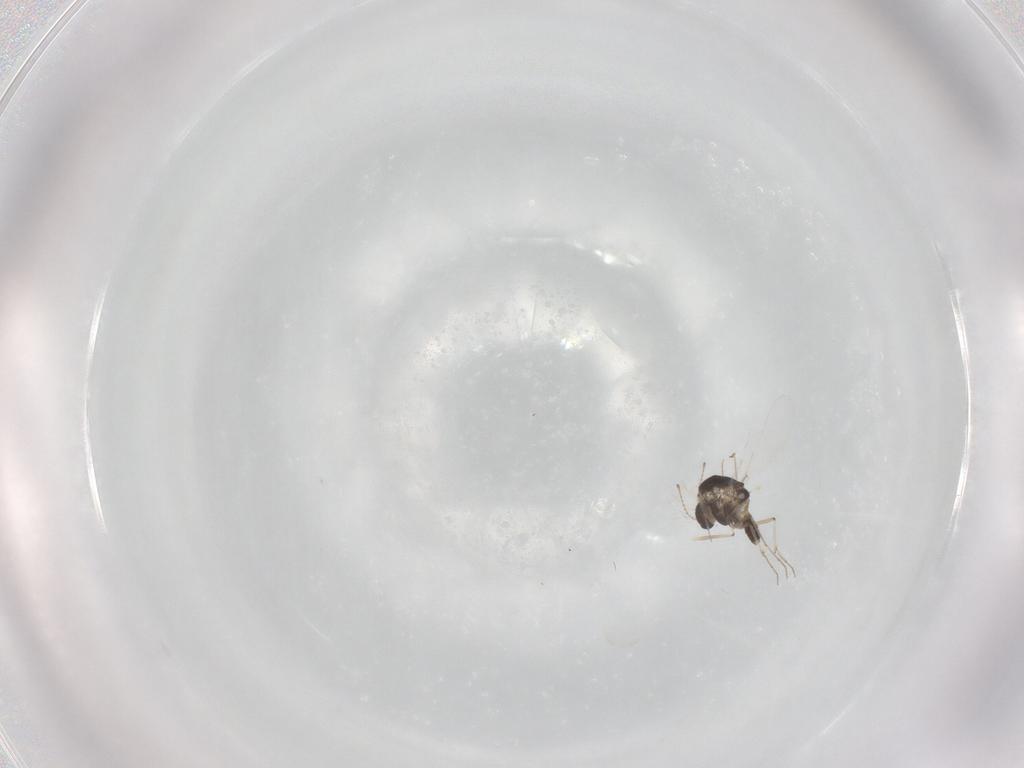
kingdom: Animalia
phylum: Arthropoda
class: Insecta
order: Diptera
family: Chironomidae
